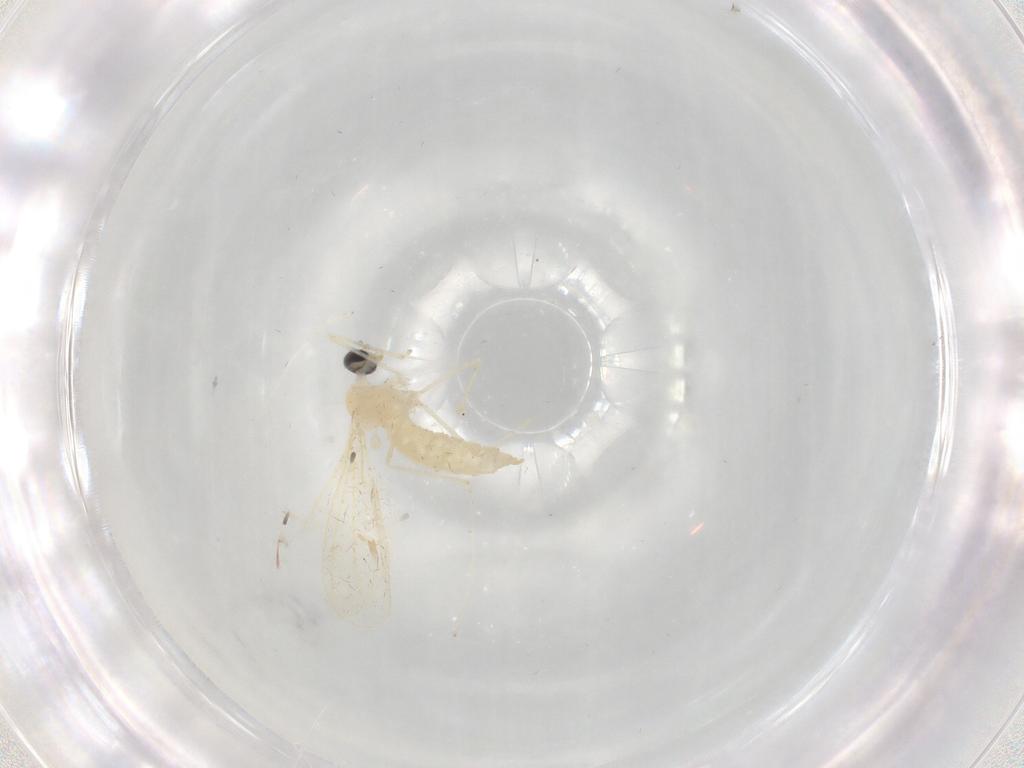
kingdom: Animalia
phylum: Arthropoda
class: Insecta
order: Diptera
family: Cecidomyiidae
